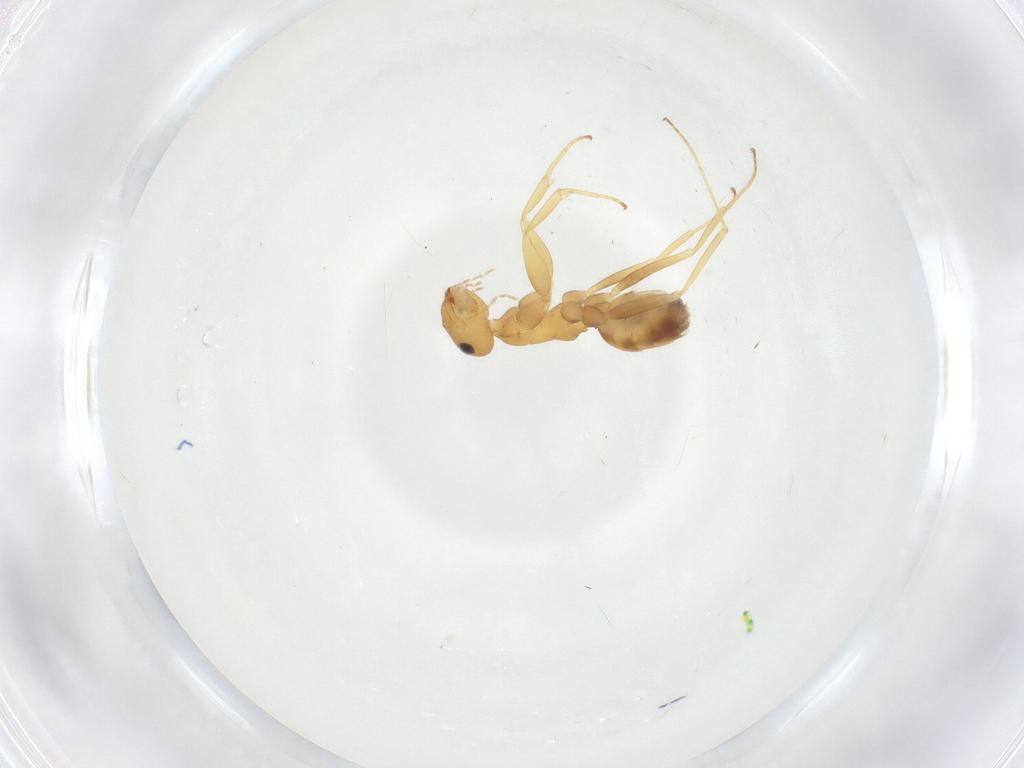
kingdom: Animalia
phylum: Arthropoda
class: Insecta
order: Hymenoptera
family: Formicidae
